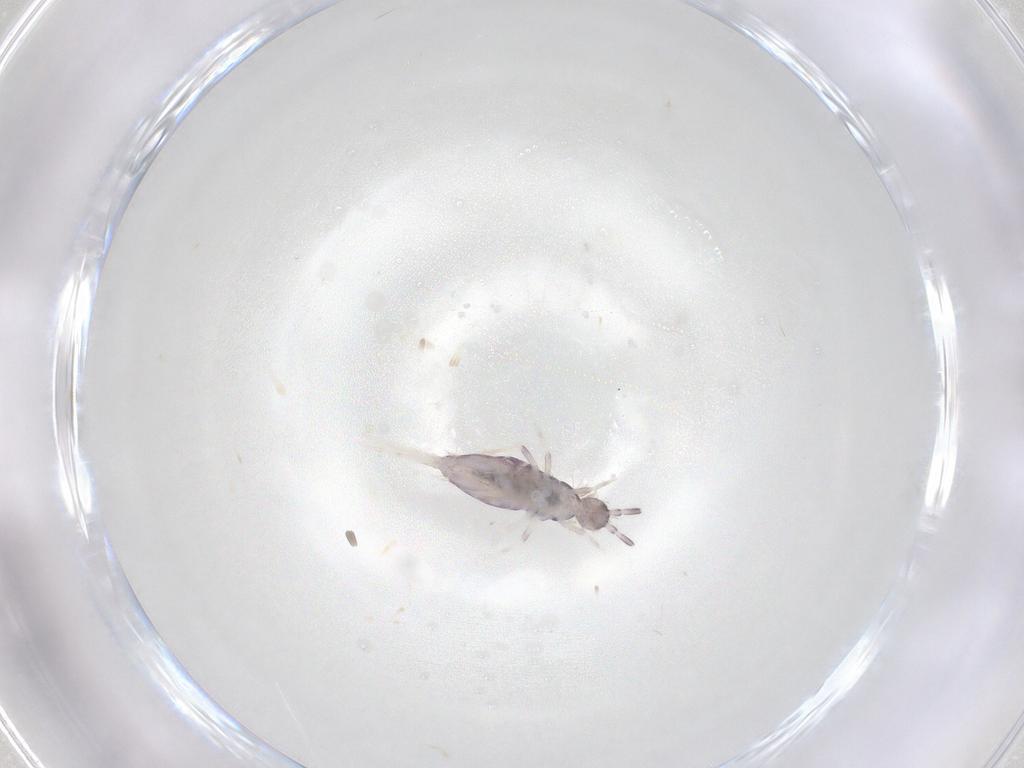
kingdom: Animalia
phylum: Arthropoda
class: Collembola
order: Poduromorpha
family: Hypogastruridae
